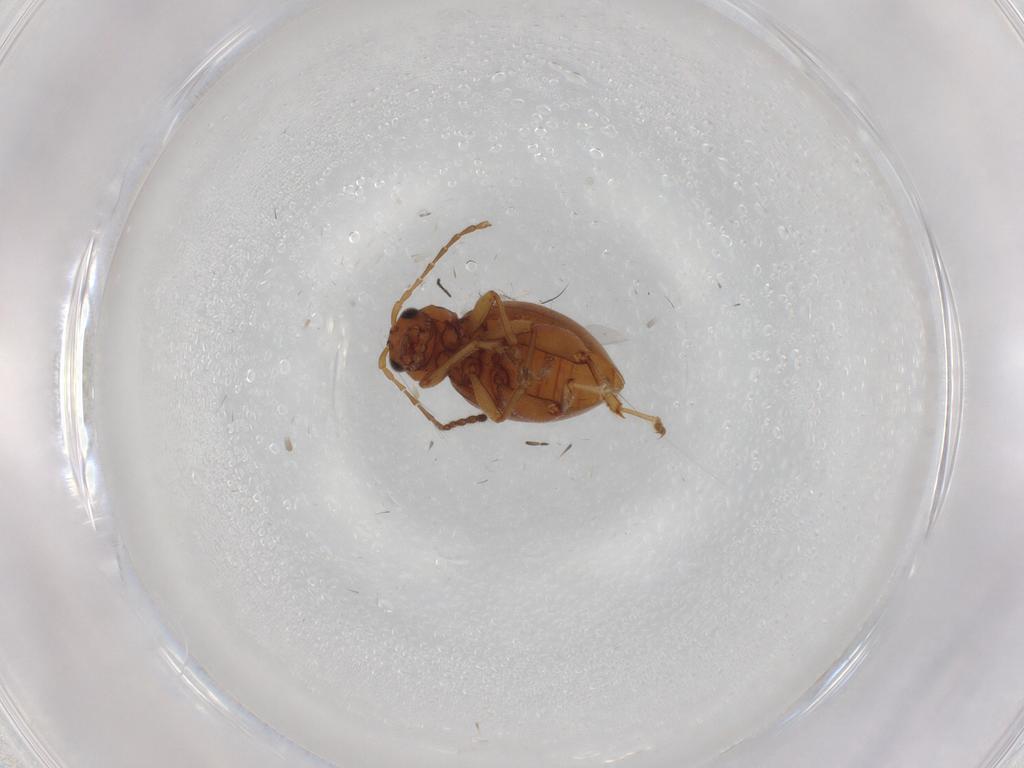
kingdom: Animalia
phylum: Arthropoda
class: Insecta
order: Coleoptera
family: Chrysomelidae
